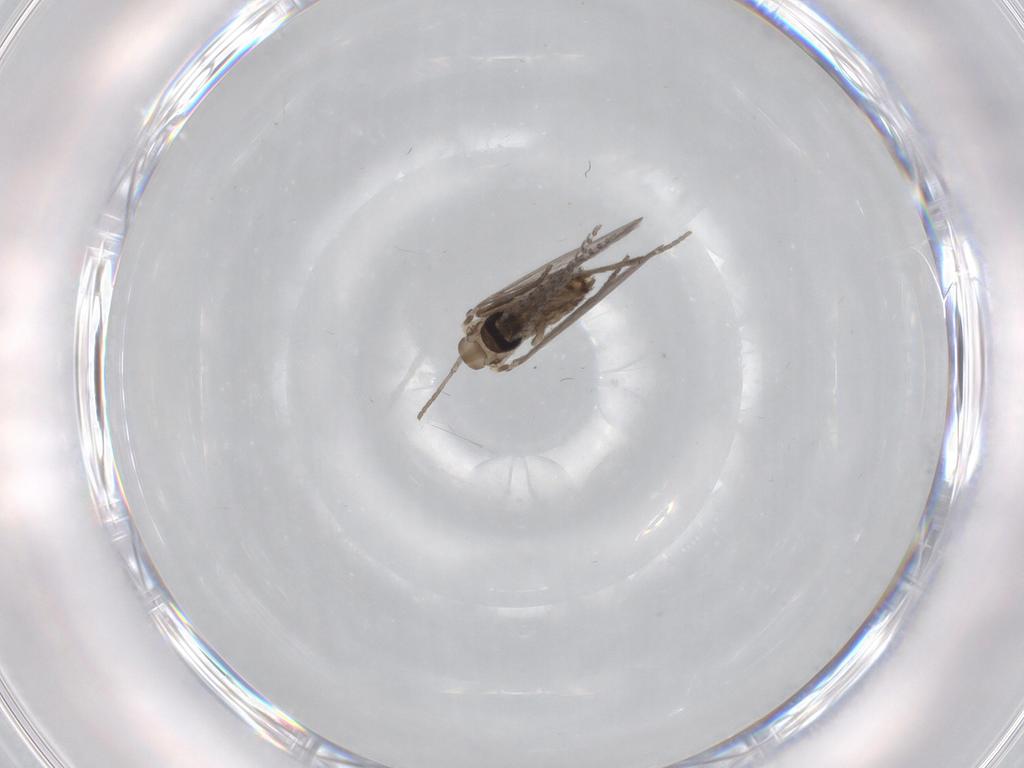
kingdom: Animalia
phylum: Arthropoda
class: Insecta
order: Diptera
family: Psychodidae
